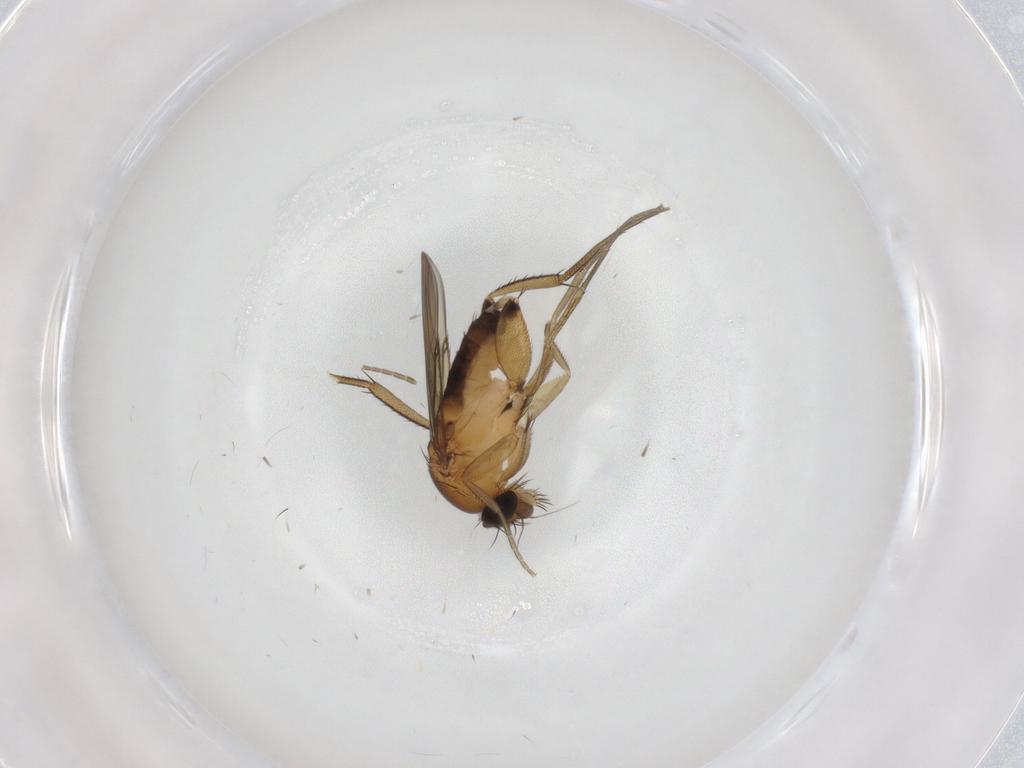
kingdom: Animalia
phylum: Arthropoda
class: Insecta
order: Diptera
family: Phoridae
